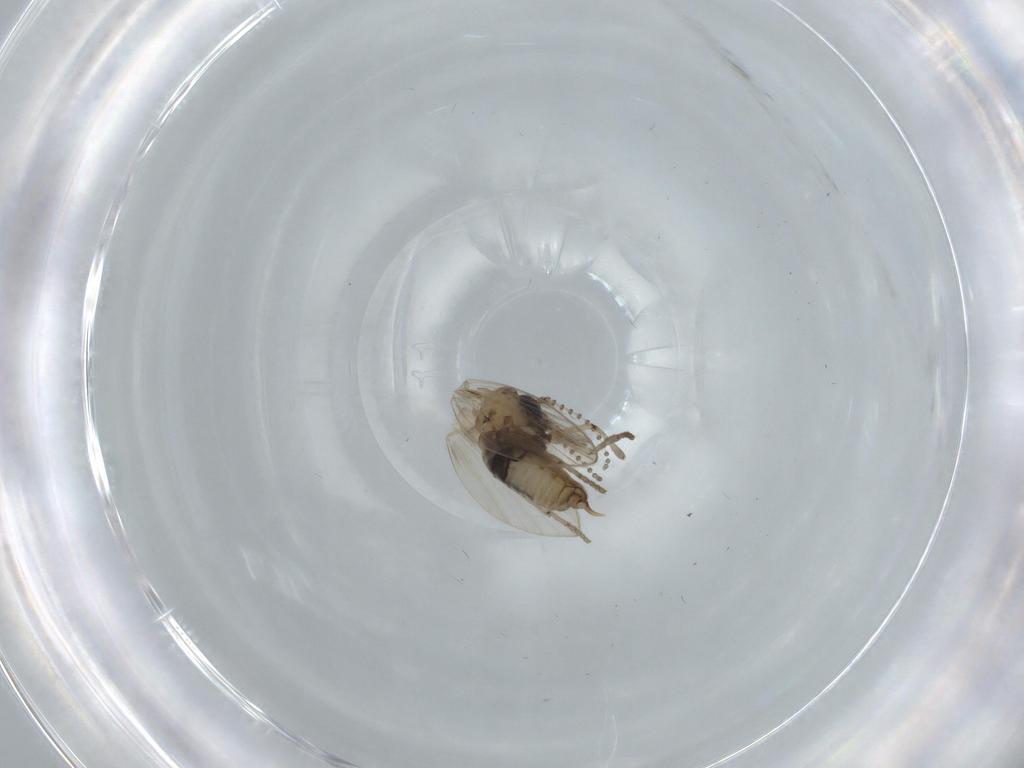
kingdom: Animalia
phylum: Arthropoda
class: Insecta
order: Diptera
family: Psychodidae
